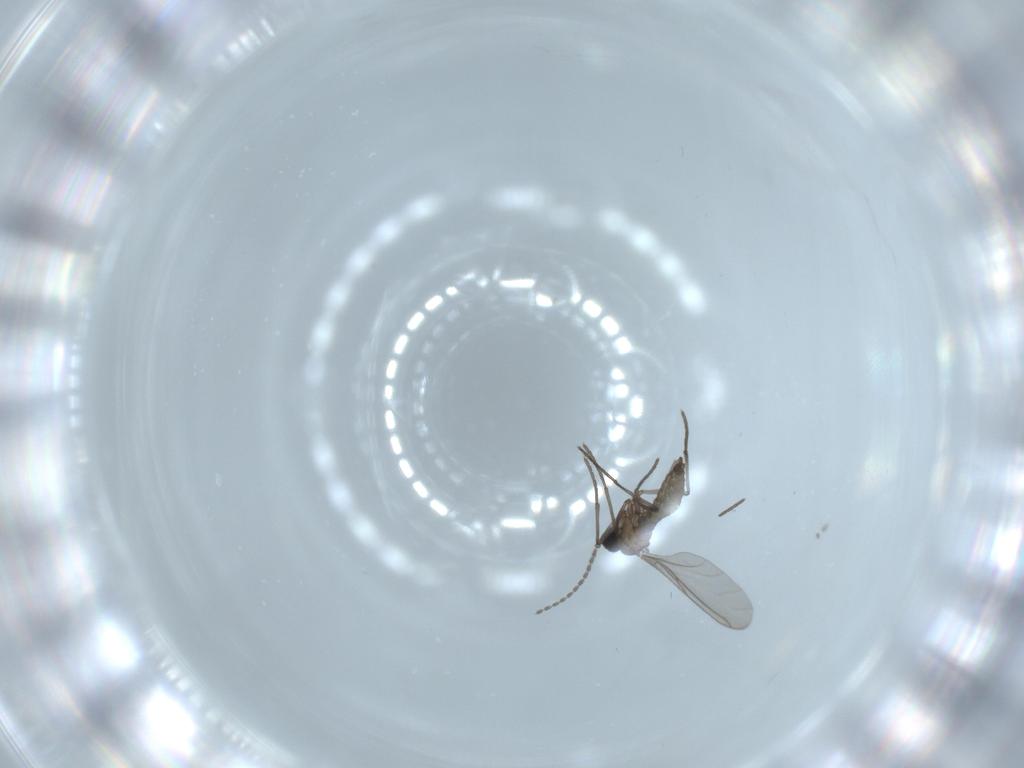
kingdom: Animalia
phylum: Arthropoda
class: Insecta
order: Diptera
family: Sciaridae
